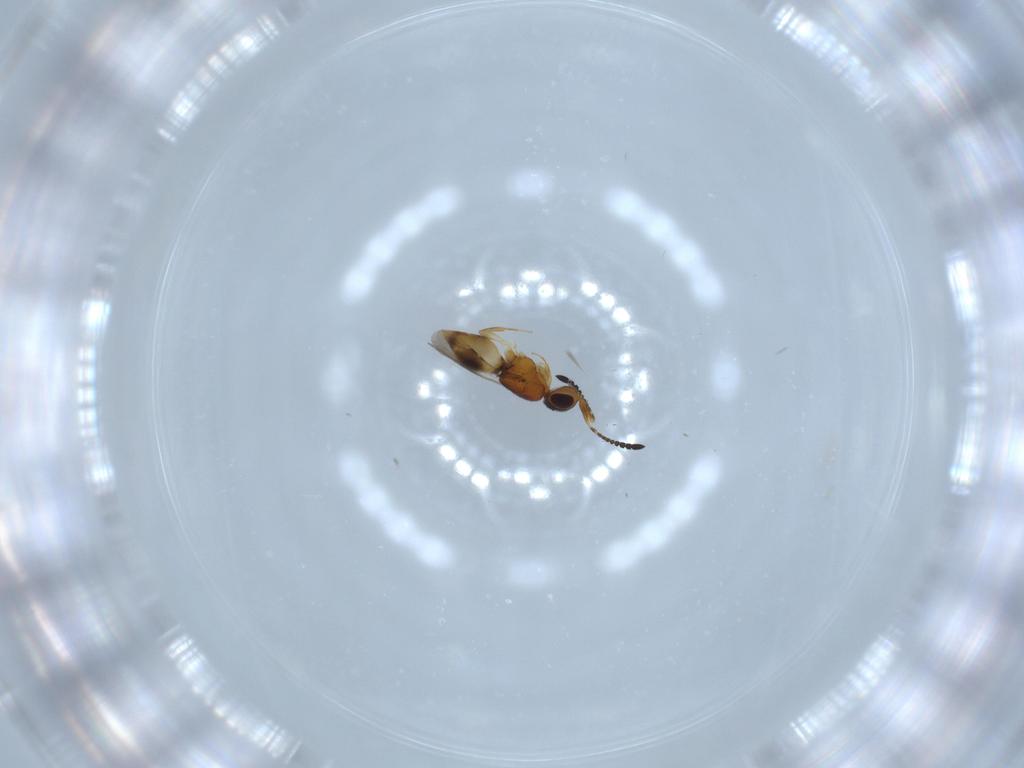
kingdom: Animalia
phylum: Arthropoda
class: Insecta
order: Hymenoptera
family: Ceraphronidae
